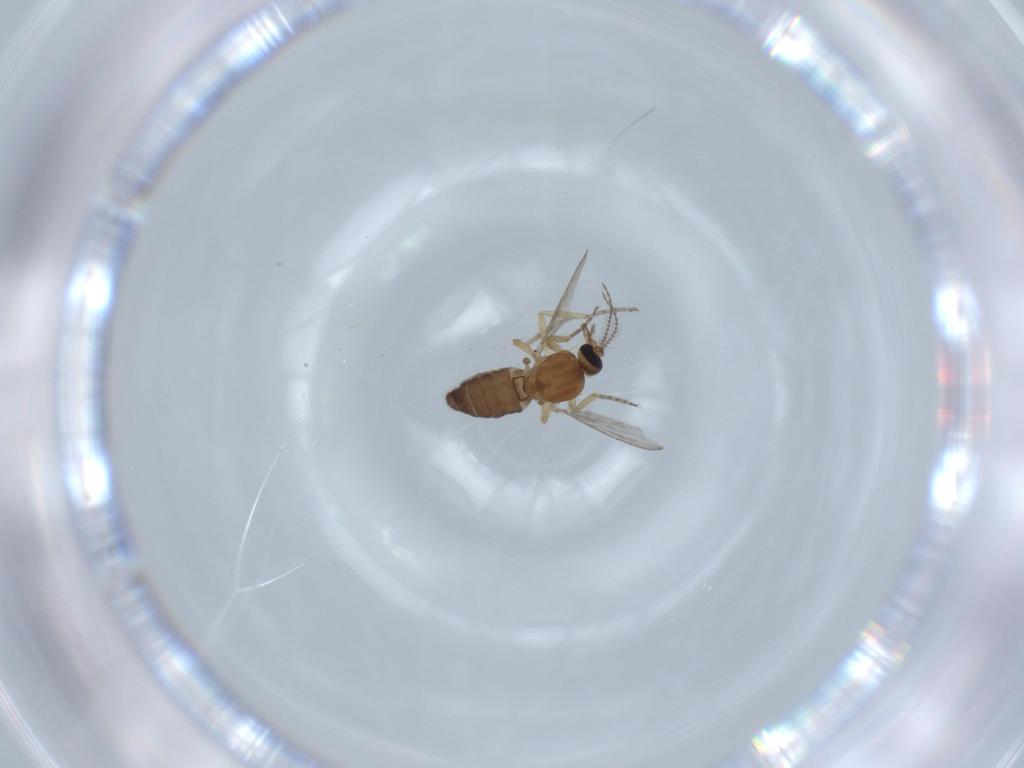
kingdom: Animalia
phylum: Arthropoda
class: Insecta
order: Diptera
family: Ceratopogonidae
